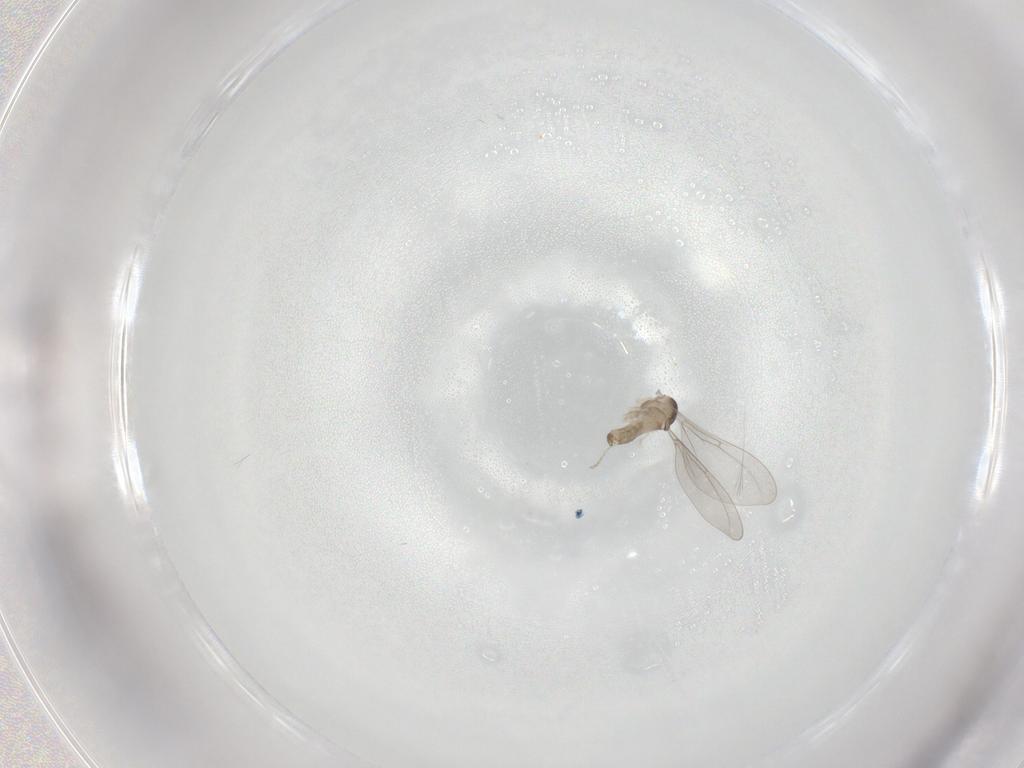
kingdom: Animalia
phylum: Arthropoda
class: Insecta
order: Diptera
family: Cecidomyiidae
